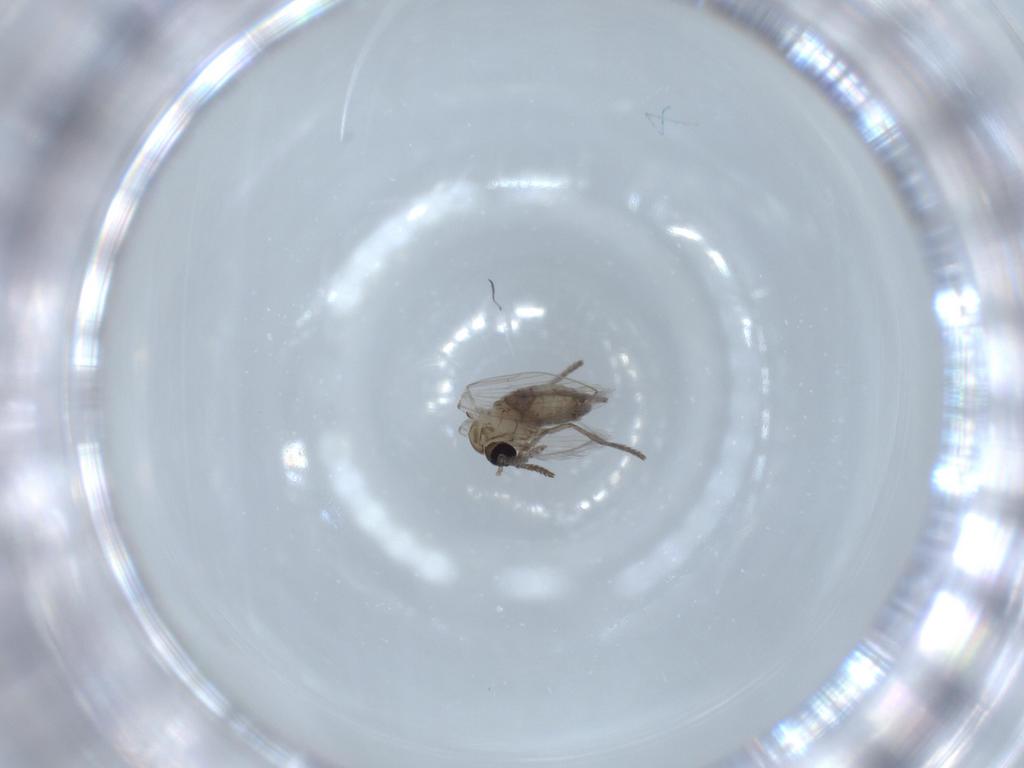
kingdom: Animalia
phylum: Arthropoda
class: Insecta
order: Diptera
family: Psychodidae
